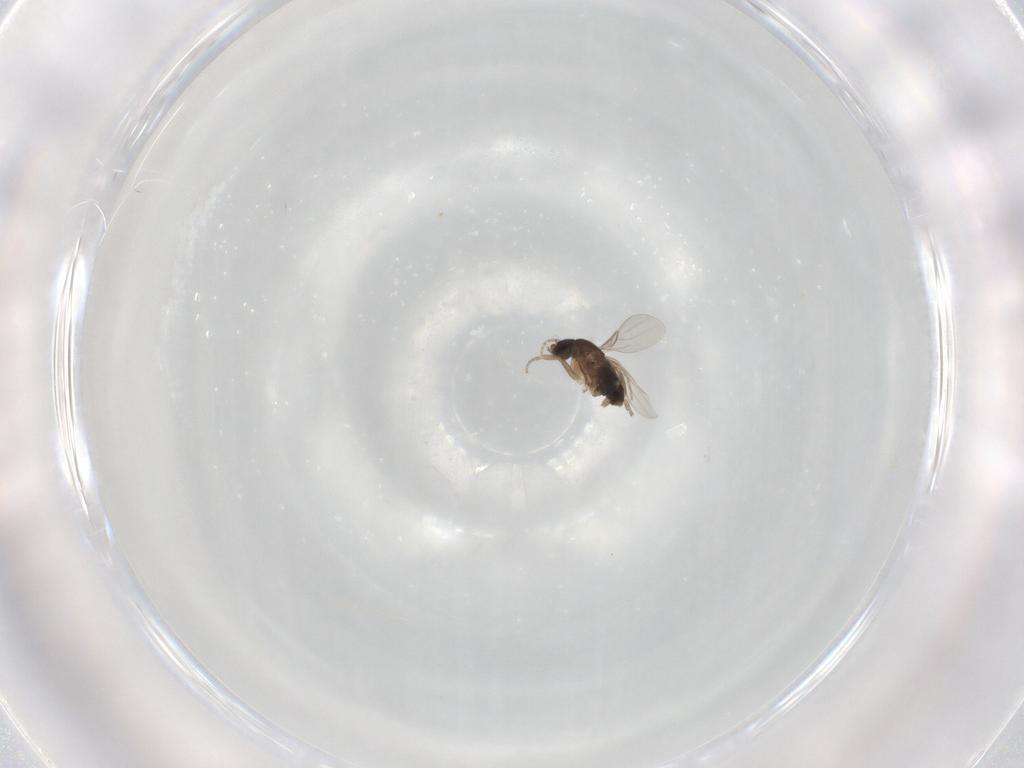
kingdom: Animalia
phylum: Arthropoda
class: Insecta
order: Diptera
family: Phoridae
